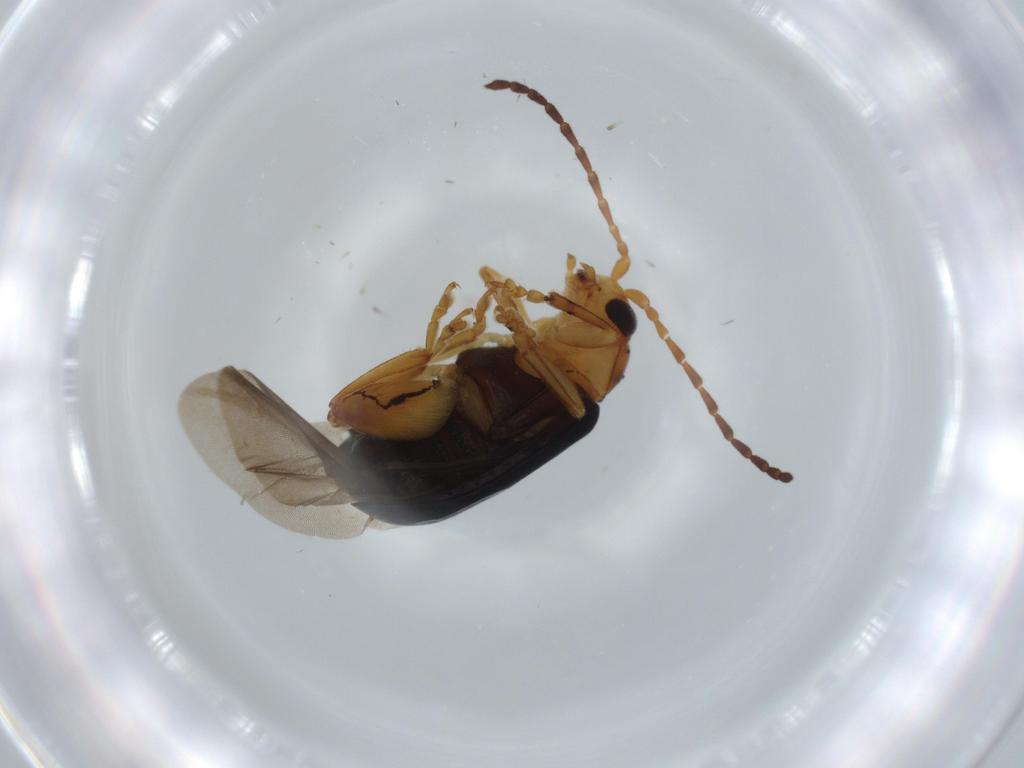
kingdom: Animalia
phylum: Arthropoda
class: Insecta
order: Coleoptera
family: Chrysomelidae
